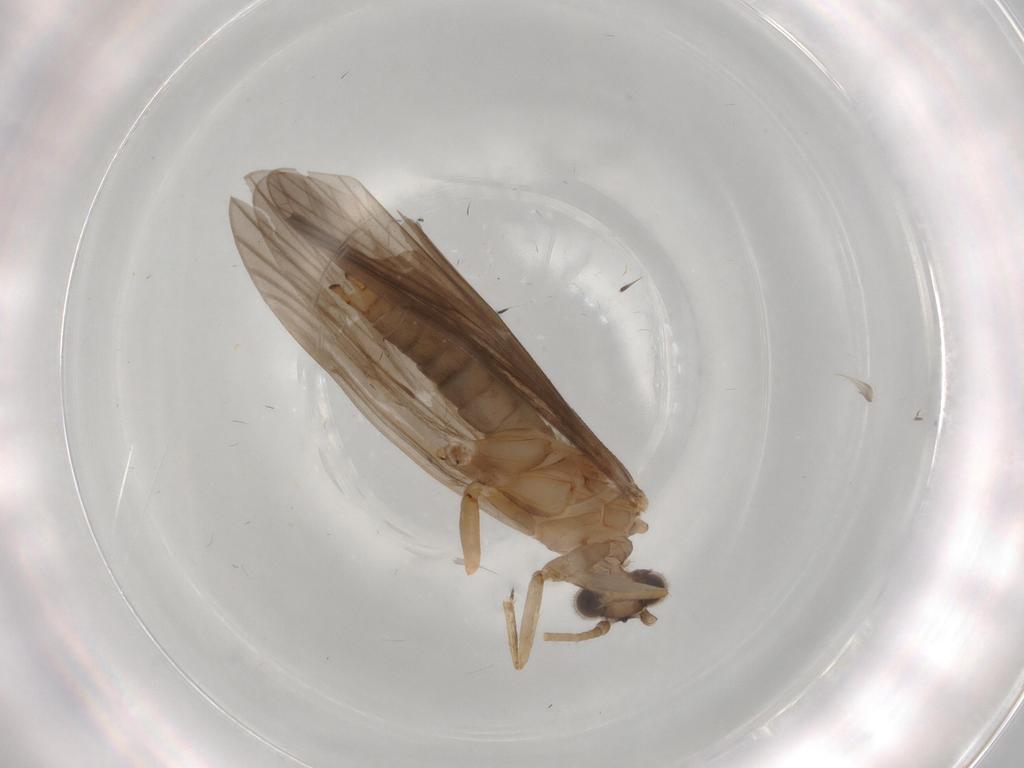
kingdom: Animalia
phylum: Arthropoda
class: Insecta
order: Trichoptera
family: Philopotamidae
